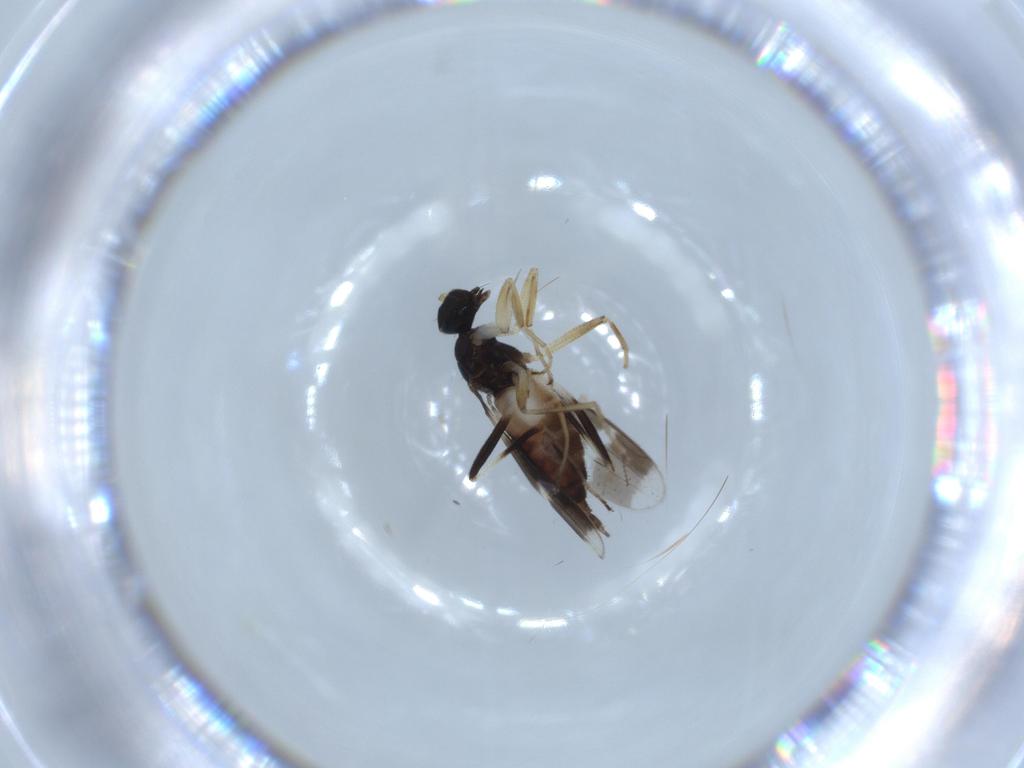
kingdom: Animalia
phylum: Arthropoda
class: Insecta
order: Diptera
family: Hybotidae
